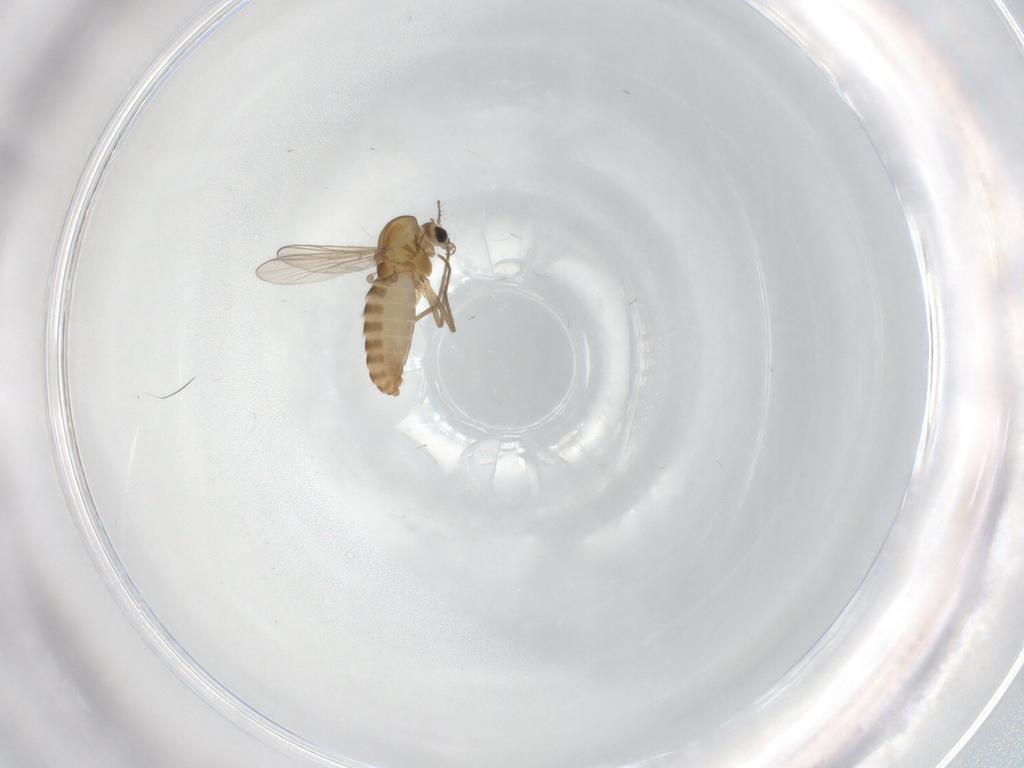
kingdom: Animalia
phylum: Arthropoda
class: Insecta
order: Diptera
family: Chironomidae
